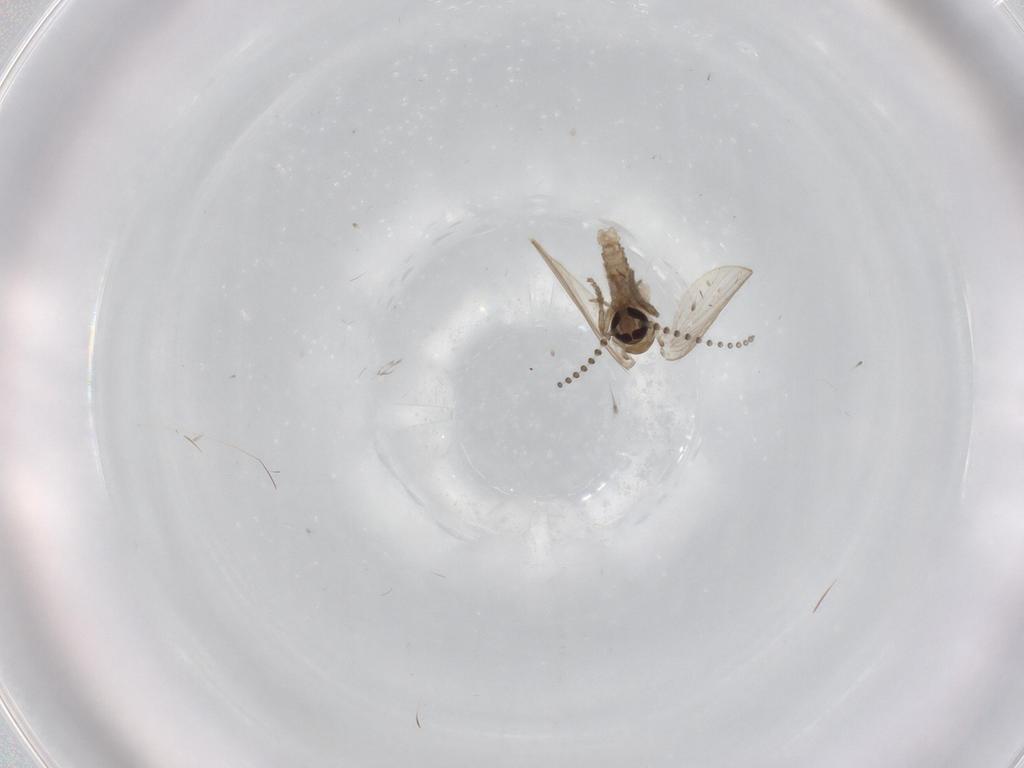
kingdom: Animalia
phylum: Arthropoda
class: Insecta
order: Diptera
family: Psychodidae
